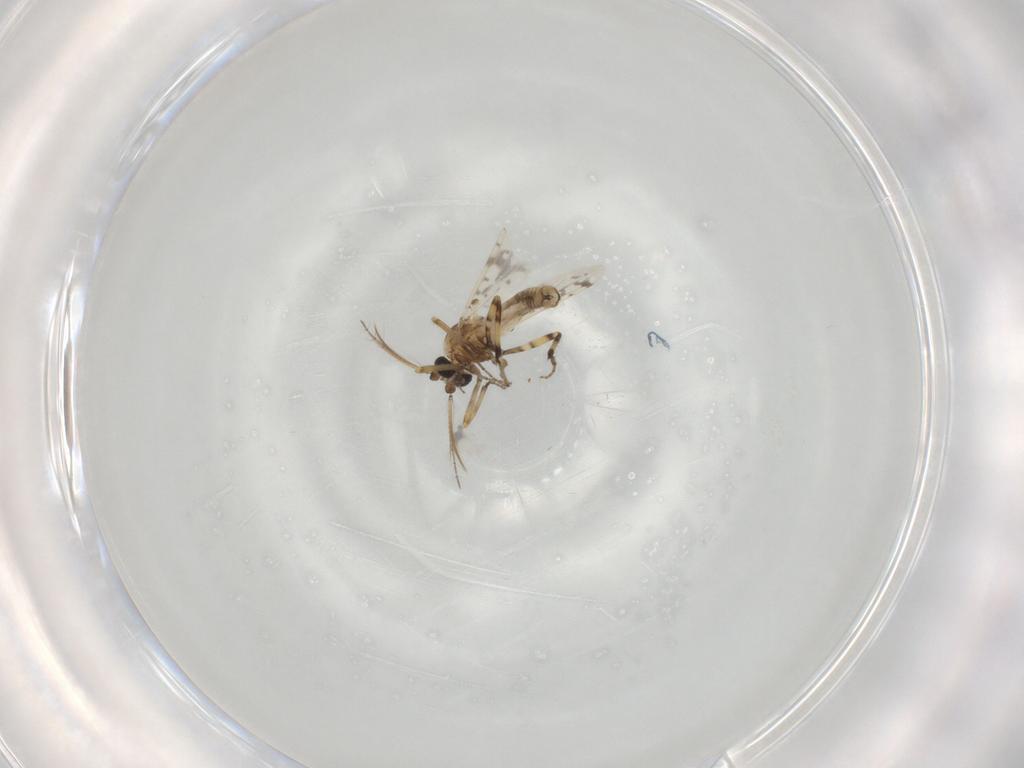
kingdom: Animalia
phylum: Arthropoda
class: Insecta
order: Diptera
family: Ceratopogonidae
